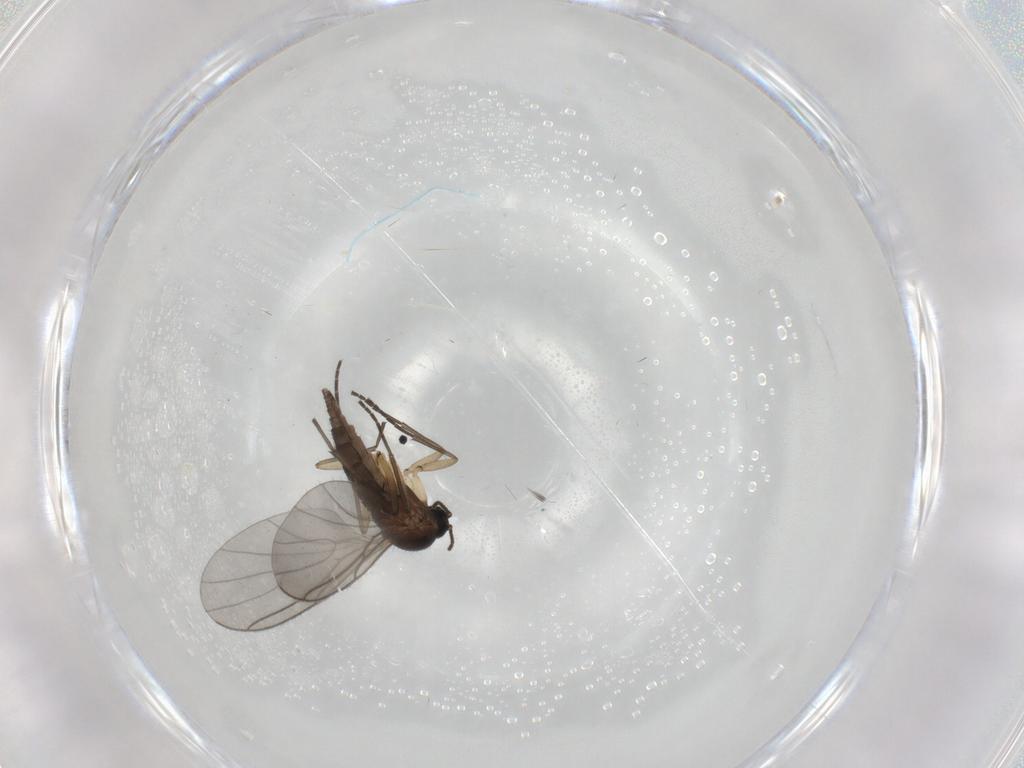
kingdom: Animalia
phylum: Arthropoda
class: Insecta
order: Diptera
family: Sciaridae
